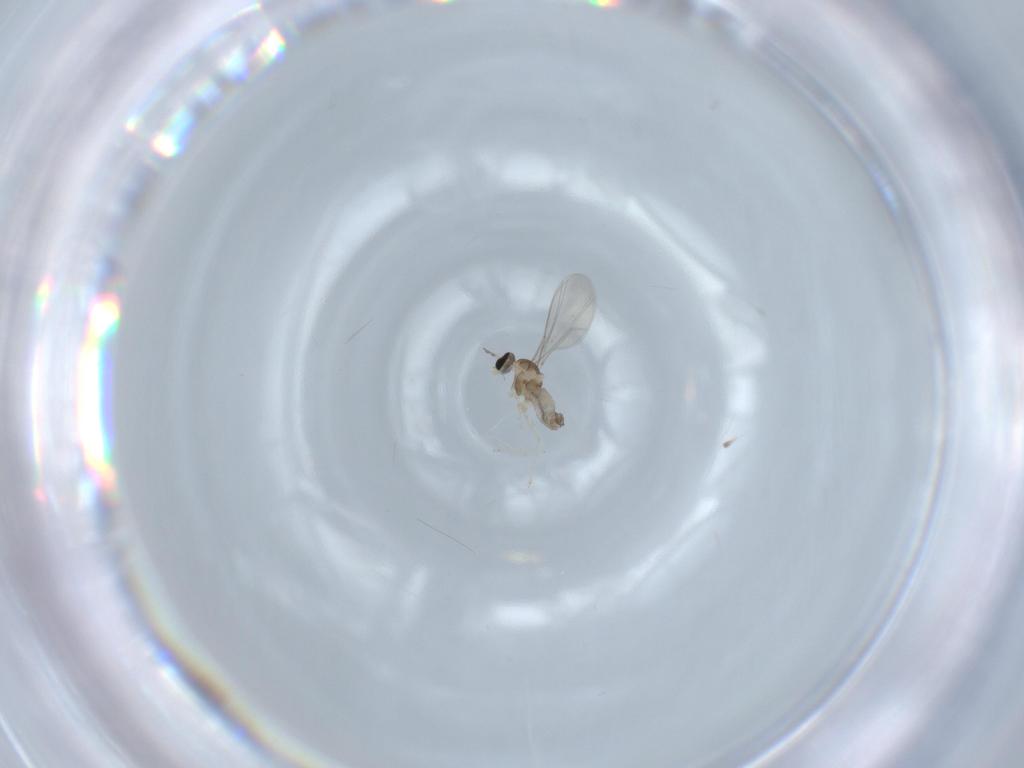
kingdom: Animalia
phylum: Arthropoda
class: Insecta
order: Diptera
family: Cecidomyiidae
